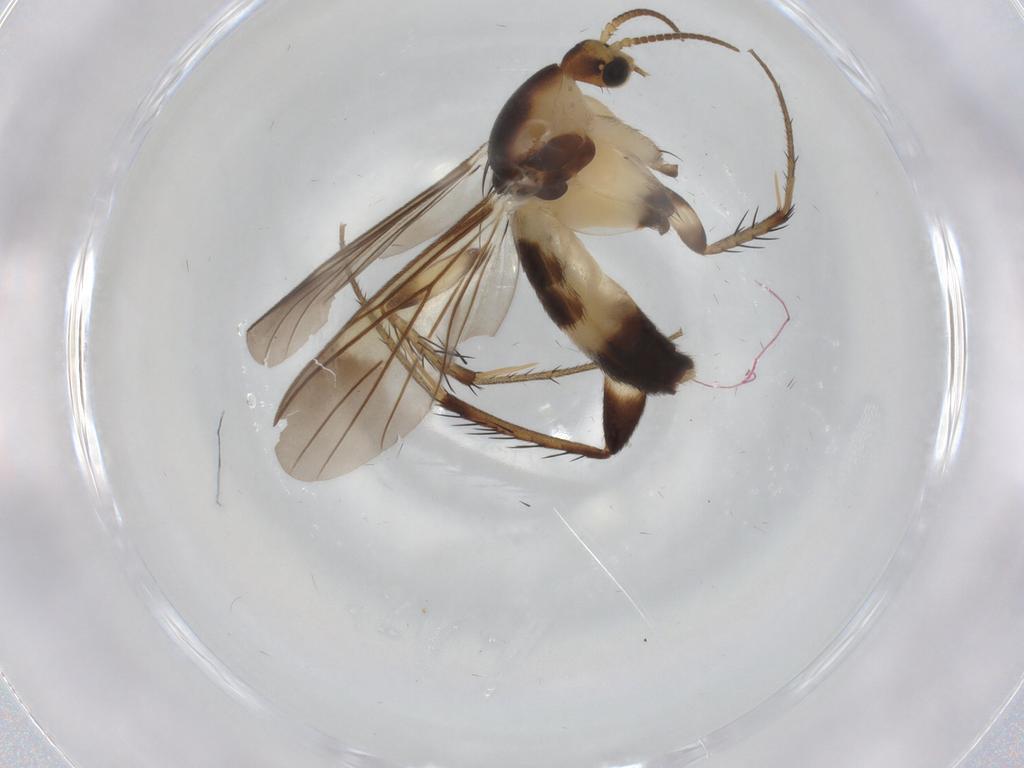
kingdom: Animalia
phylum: Arthropoda
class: Insecta
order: Diptera
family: Mycetophilidae
